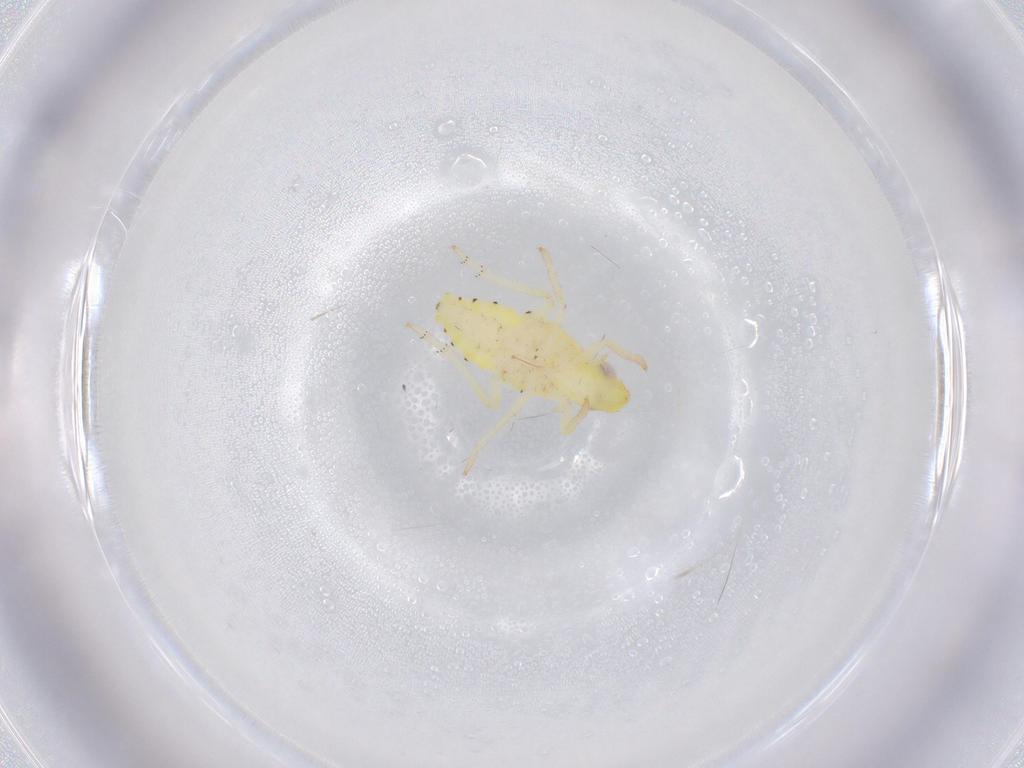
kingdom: Animalia
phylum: Arthropoda
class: Insecta
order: Hemiptera
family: Tropiduchidae
